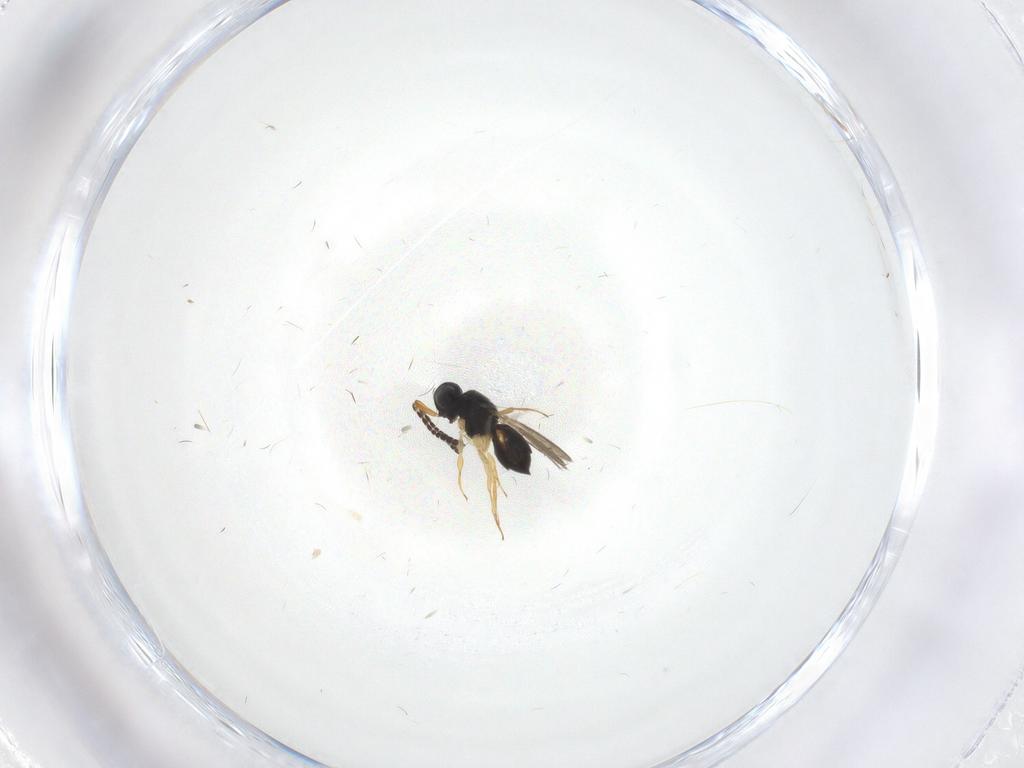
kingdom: Animalia
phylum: Arthropoda
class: Insecta
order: Hymenoptera
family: Scelionidae
